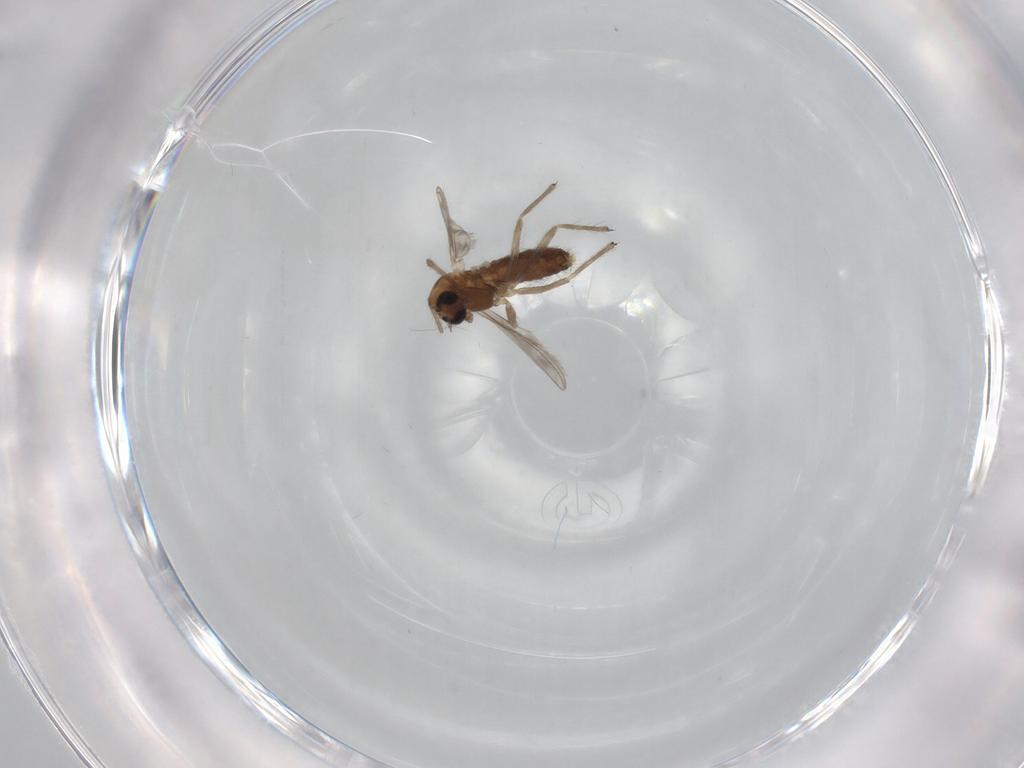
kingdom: Animalia
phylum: Arthropoda
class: Insecta
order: Diptera
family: Chironomidae
